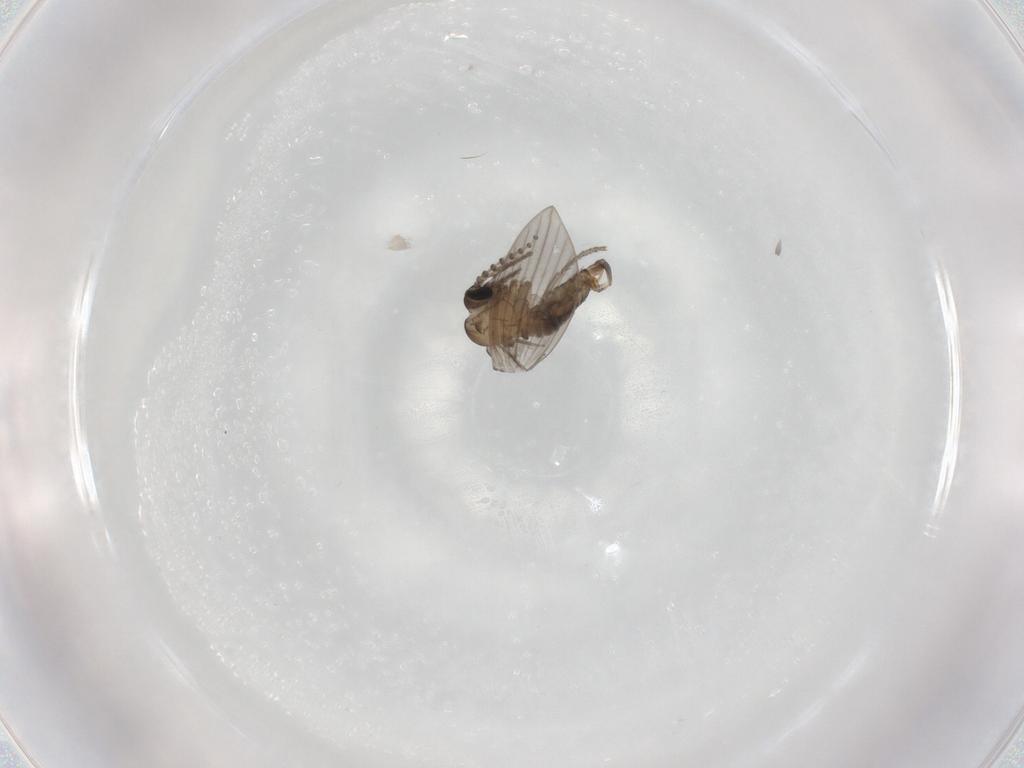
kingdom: Animalia
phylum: Arthropoda
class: Insecta
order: Diptera
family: Psychodidae
